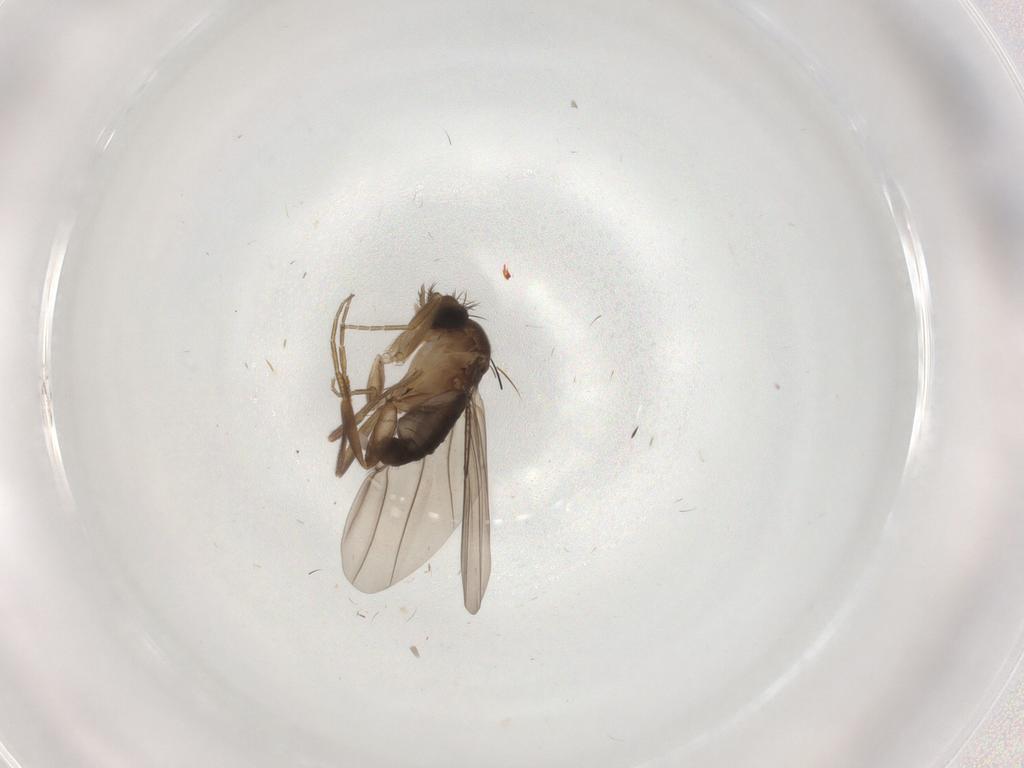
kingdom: Animalia
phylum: Arthropoda
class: Insecta
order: Diptera
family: Phoridae
